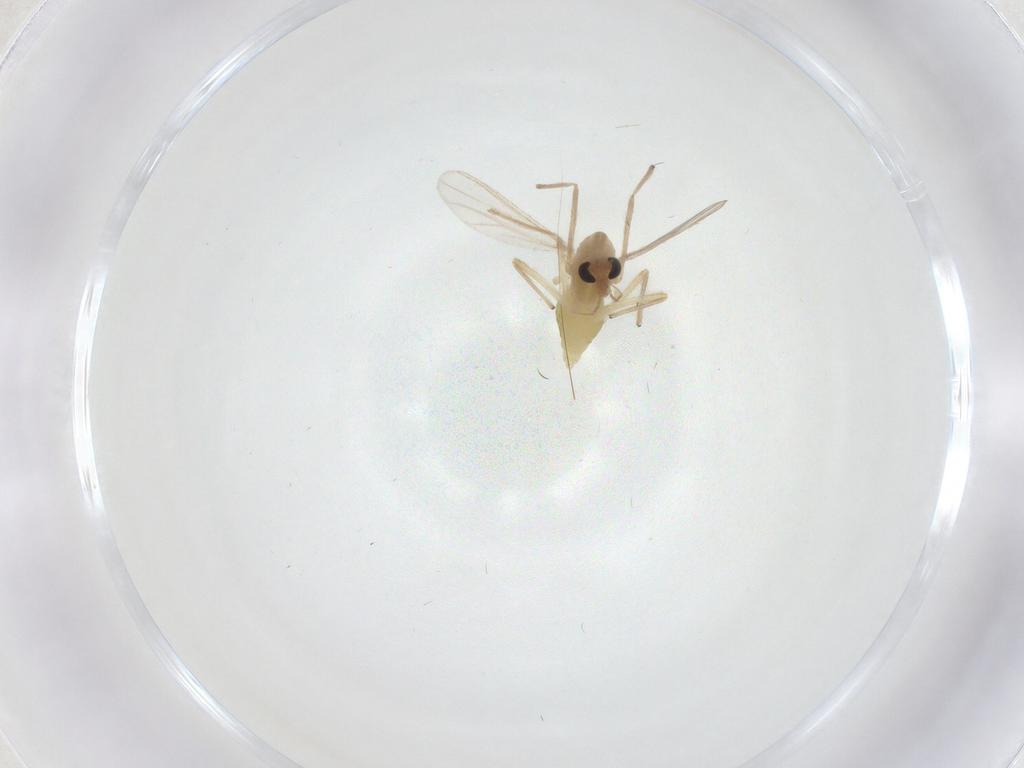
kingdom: Animalia
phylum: Arthropoda
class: Insecta
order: Diptera
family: Chironomidae
